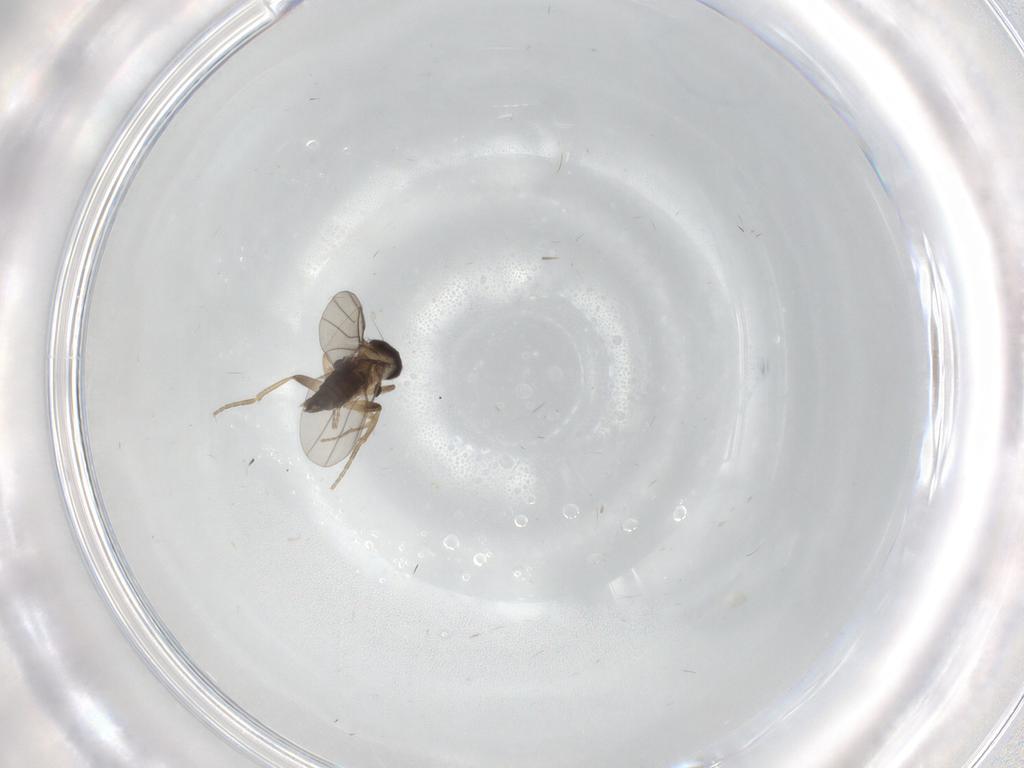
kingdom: Animalia
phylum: Arthropoda
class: Insecta
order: Diptera
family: Phoridae
